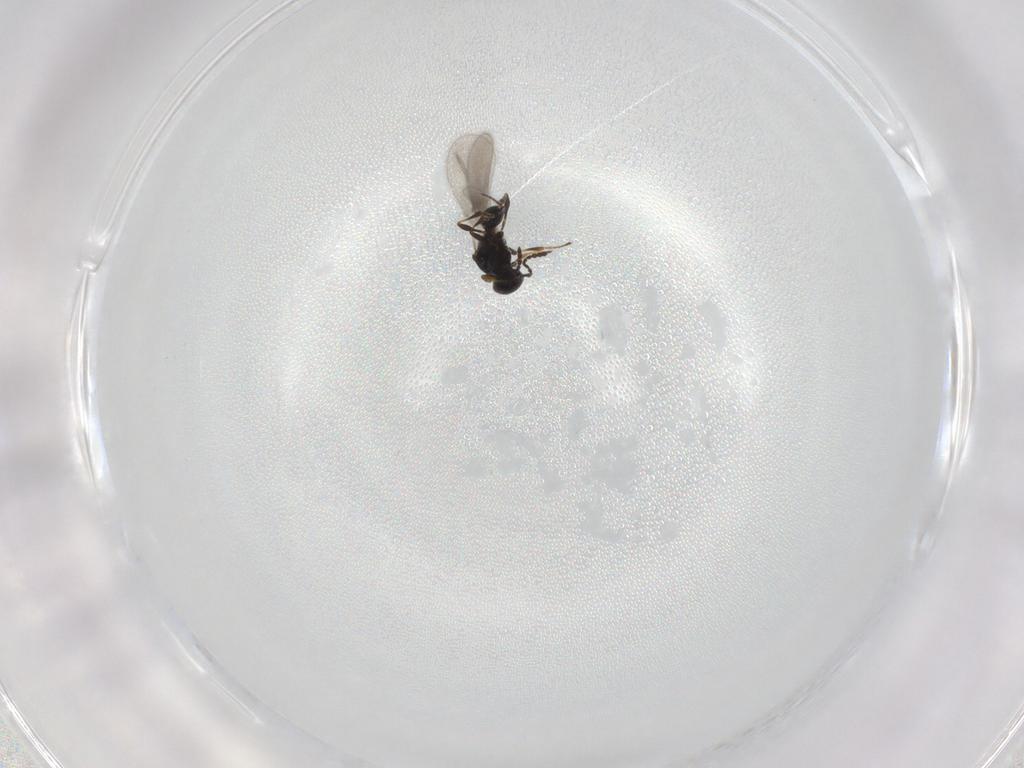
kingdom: Animalia
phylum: Arthropoda
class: Insecta
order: Hymenoptera
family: Platygastridae
